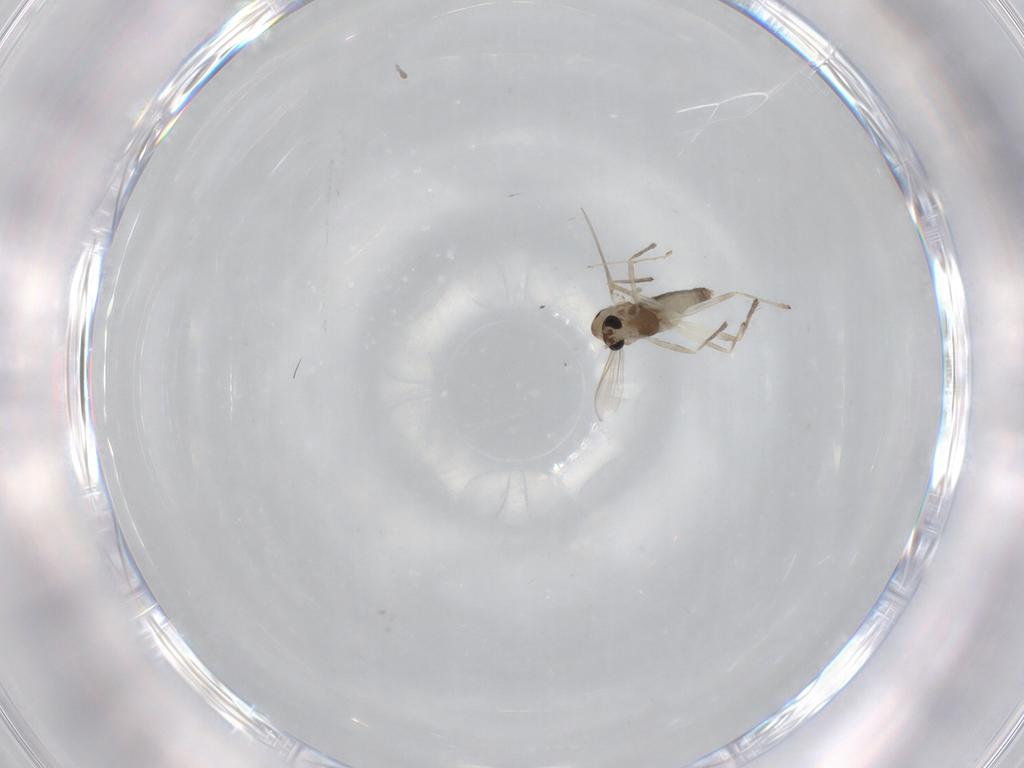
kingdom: Animalia
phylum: Arthropoda
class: Insecta
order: Diptera
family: Chironomidae
